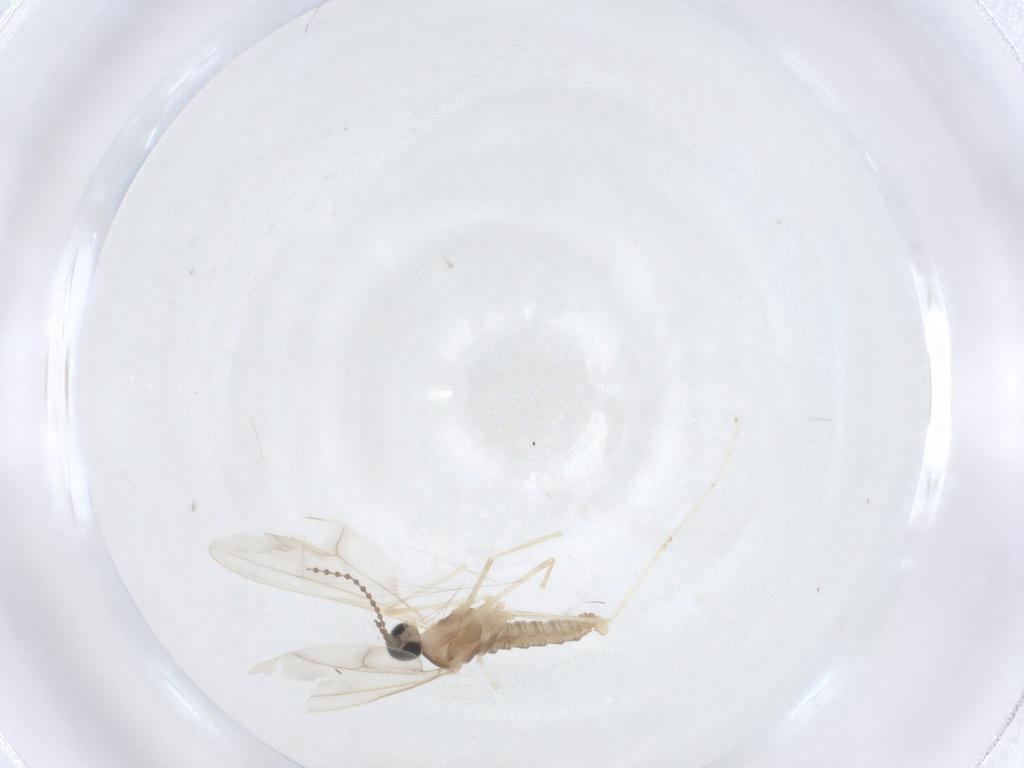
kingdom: Animalia
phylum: Arthropoda
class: Insecta
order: Diptera
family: Cecidomyiidae
